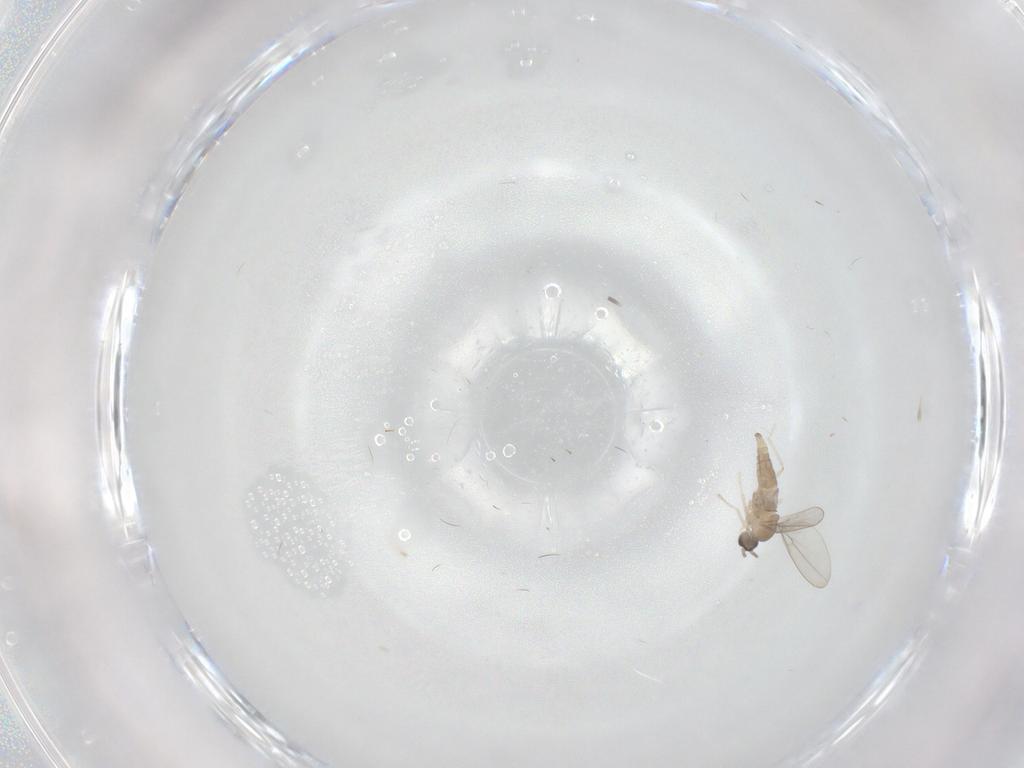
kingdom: Animalia
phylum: Arthropoda
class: Insecta
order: Diptera
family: Cecidomyiidae
